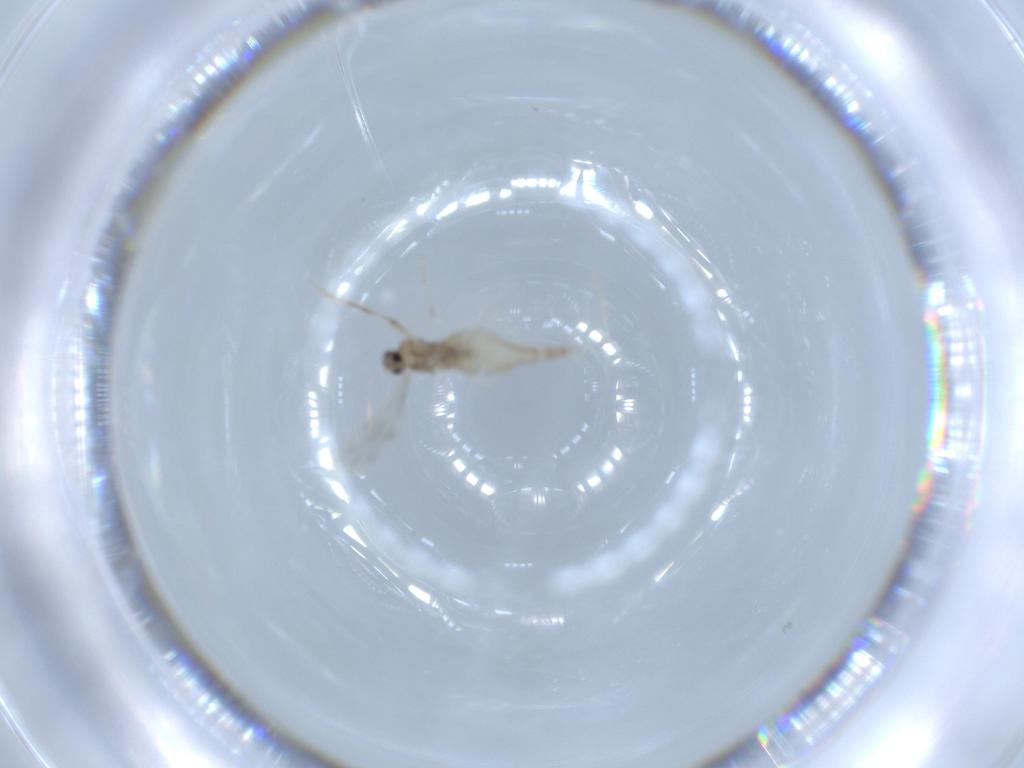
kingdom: Animalia
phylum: Arthropoda
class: Insecta
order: Diptera
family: Cecidomyiidae
